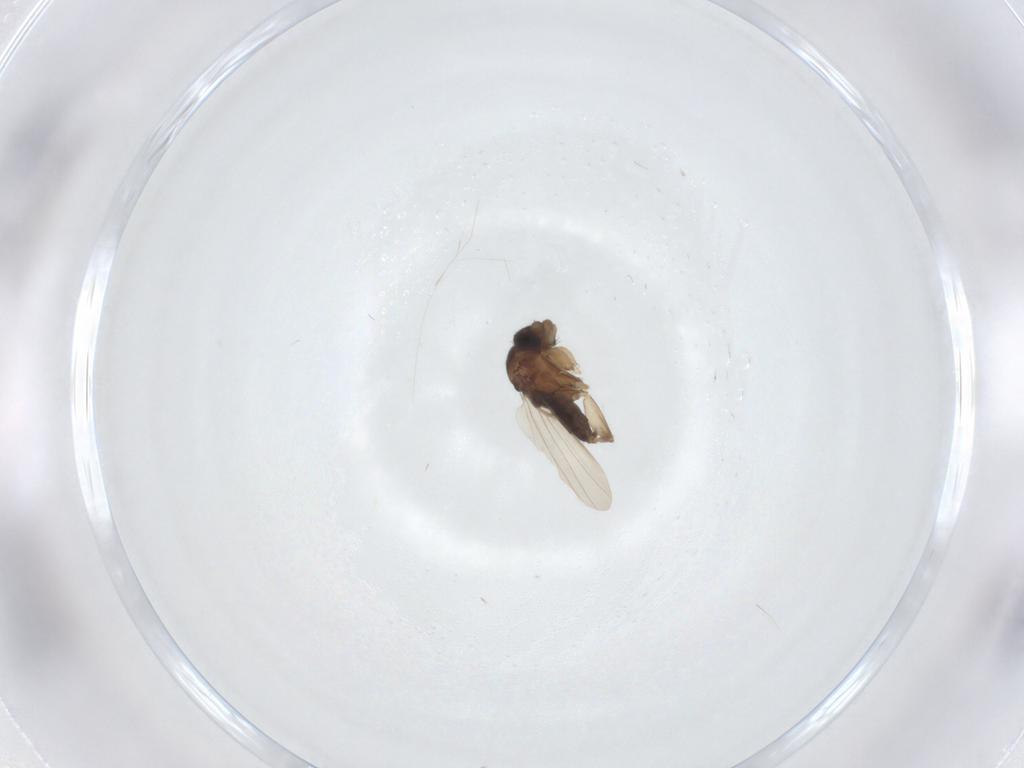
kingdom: Animalia
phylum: Arthropoda
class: Insecta
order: Diptera
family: Phoridae
